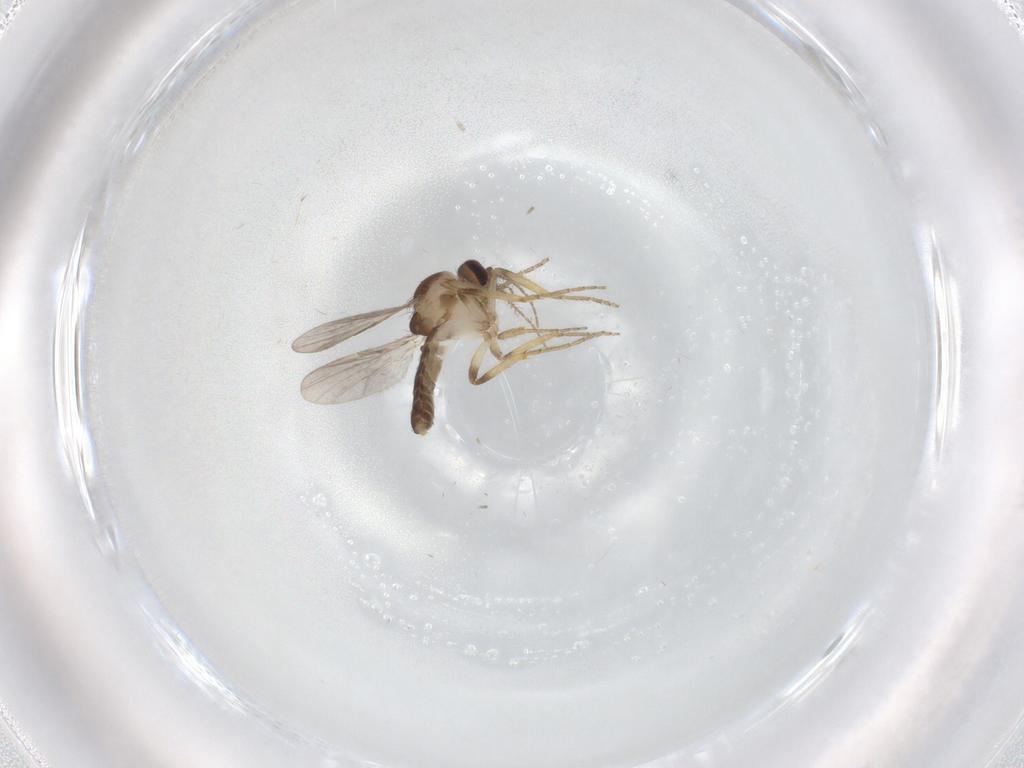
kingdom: Animalia
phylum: Arthropoda
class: Insecta
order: Diptera
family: Ceratopogonidae
